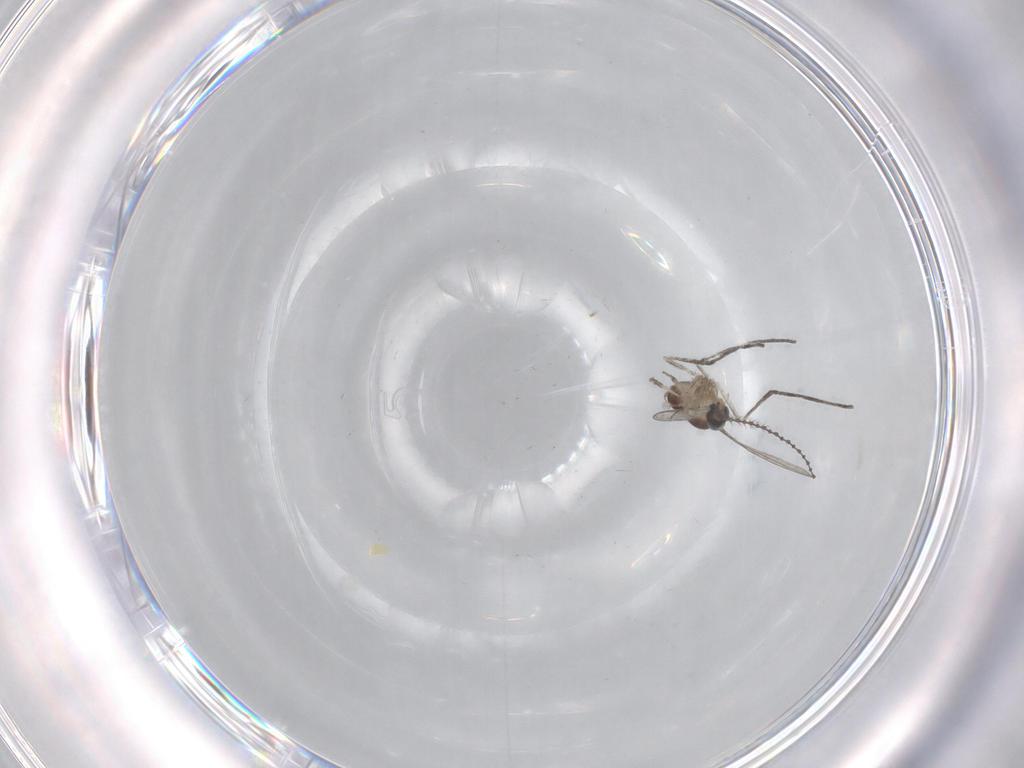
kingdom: Animalia
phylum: Arthropoda
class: Insecta
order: Diptera
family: Cecidomyiidae
